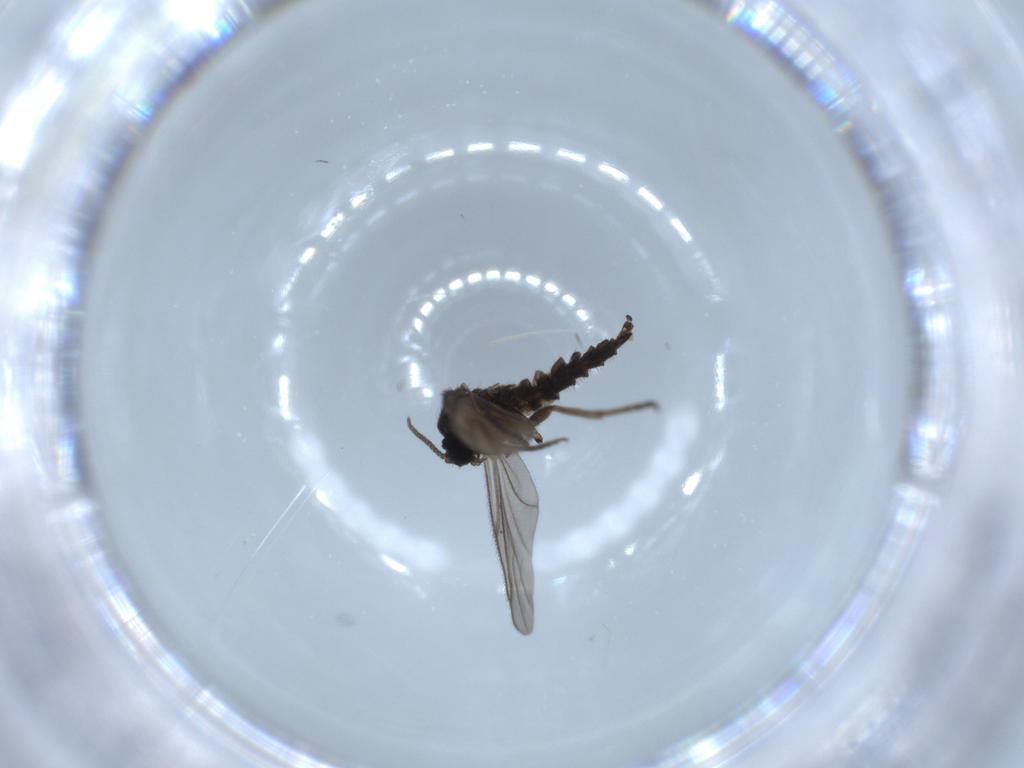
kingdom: Animalia
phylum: Arthropoda
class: Insecta
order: Diptera
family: Sciaridae
